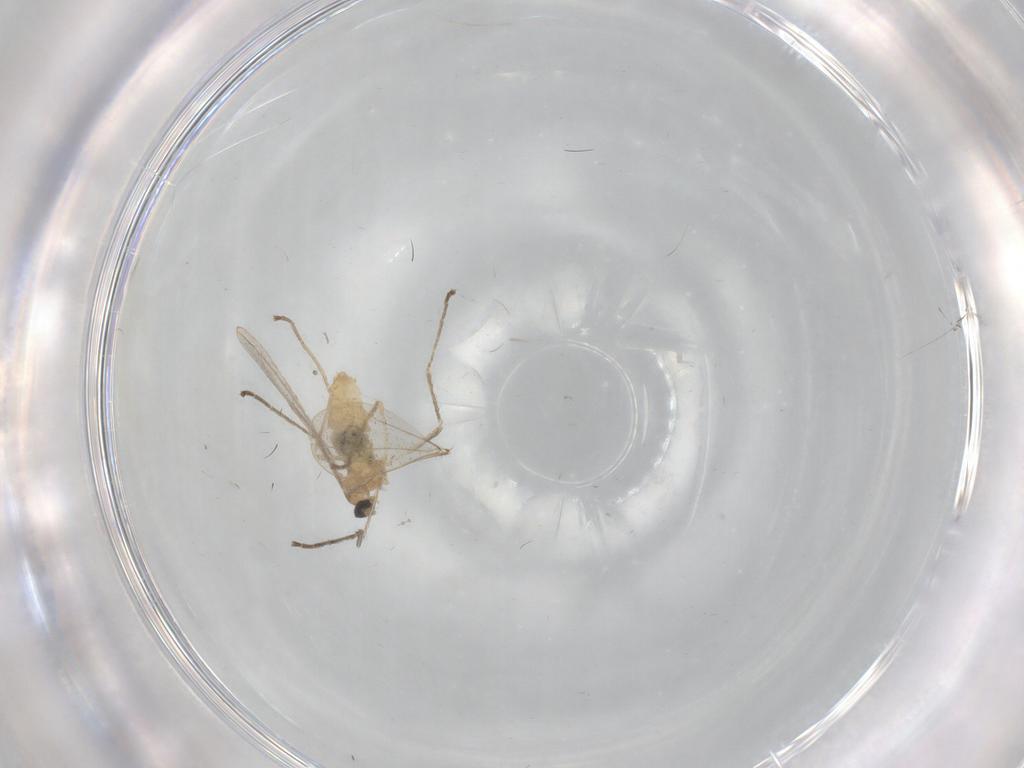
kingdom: Animalia
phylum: Arthropoda
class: Insecta
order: Diptera
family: Cecidomyiidae
